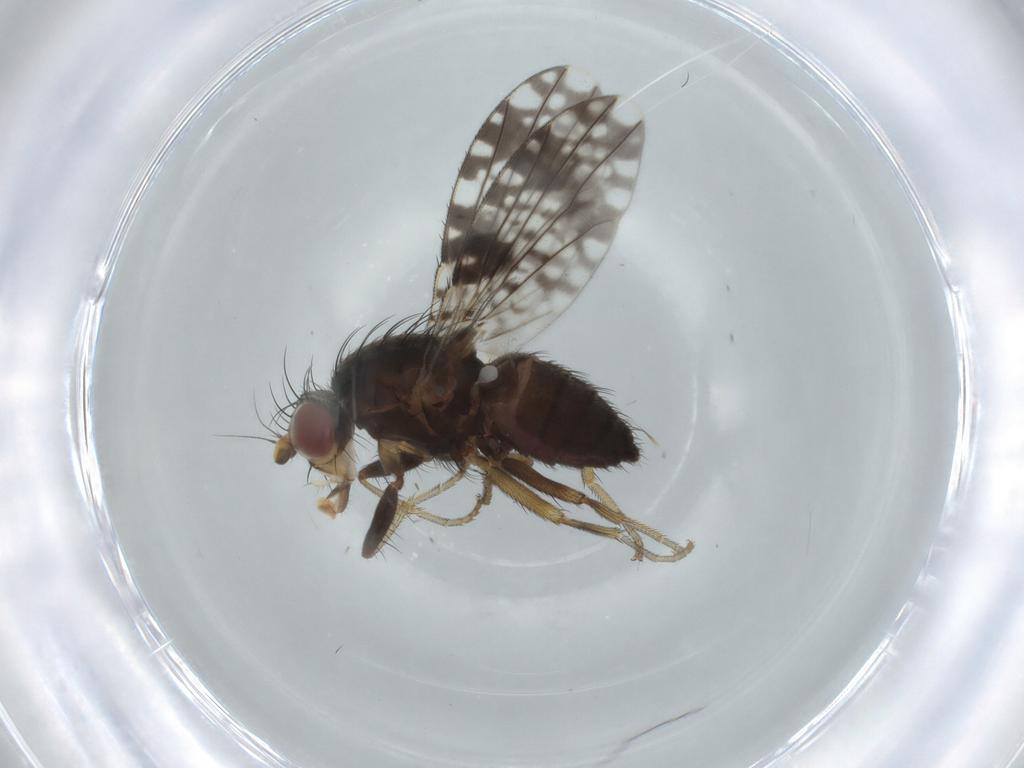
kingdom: Animalia
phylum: Arthropoda
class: Insecta
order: Diptera
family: Tephritidae
